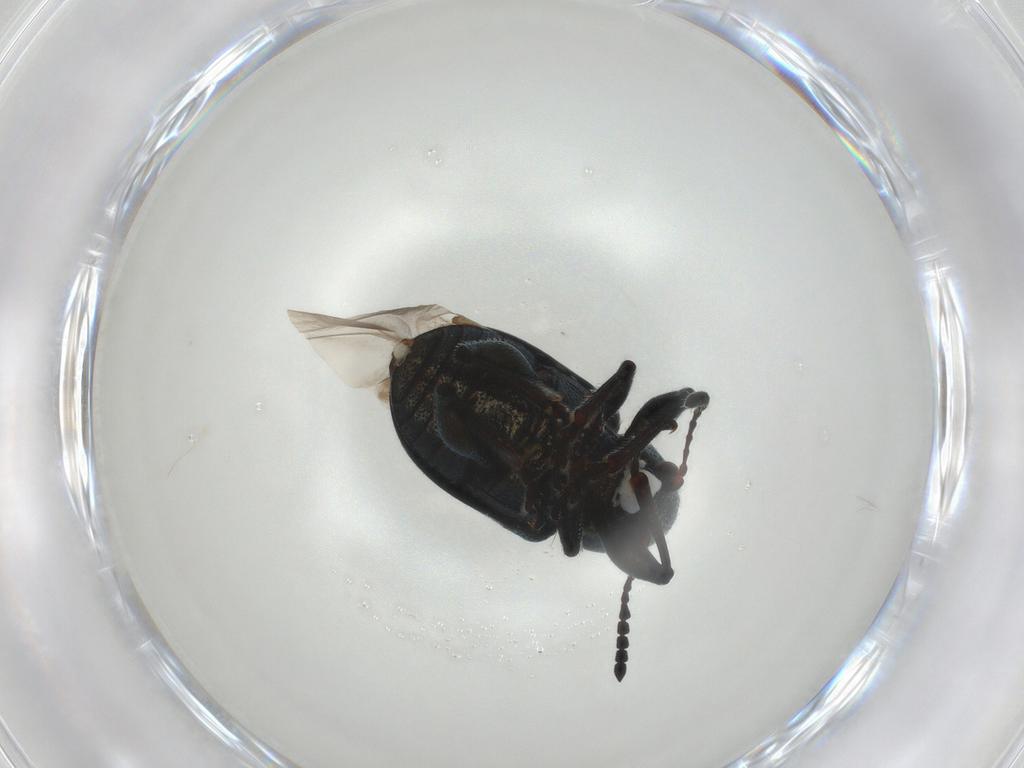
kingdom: Animalia
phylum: Arthropoda
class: Insecta
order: Coleoptera
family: Chrysomelidae
